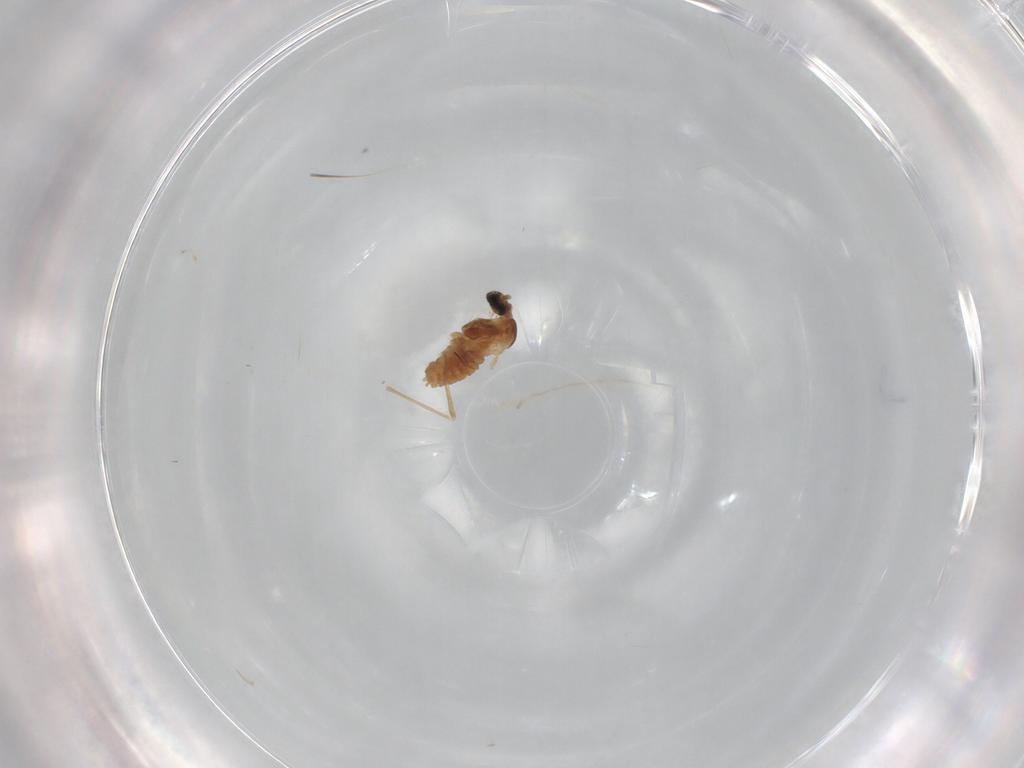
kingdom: Animalia
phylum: Arthropoda
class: Insecta
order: Diptera
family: Cecidomyiidae
